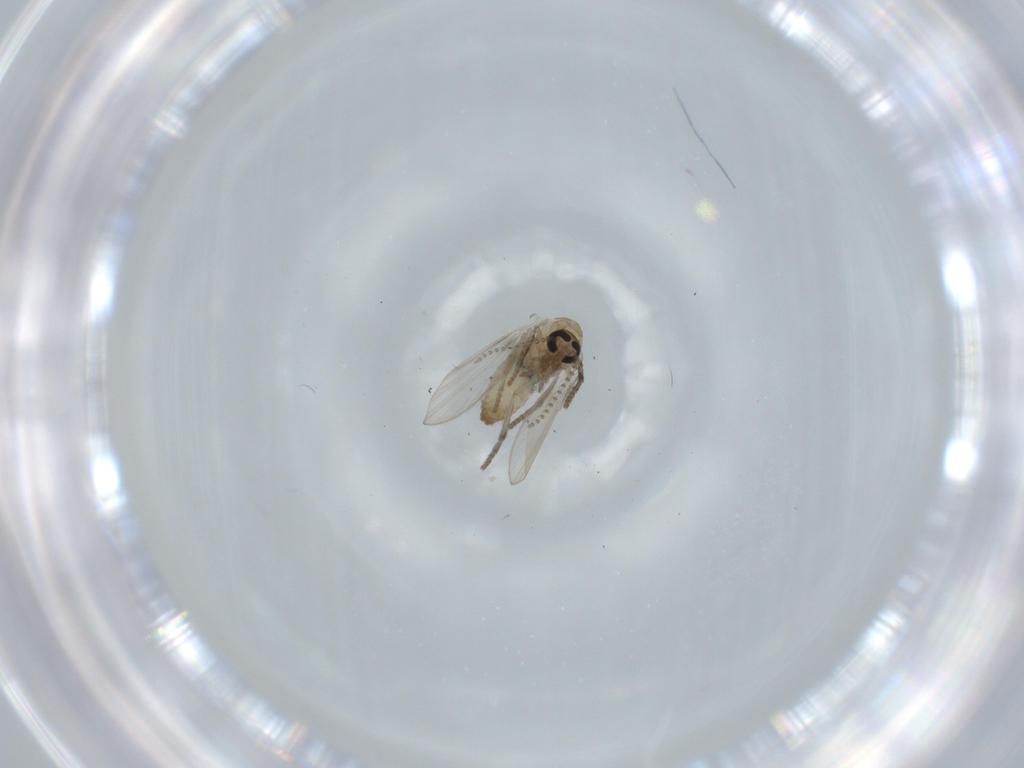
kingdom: Animalia
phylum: Arthropoda
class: Insecta
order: Diptera
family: Psychodidae
